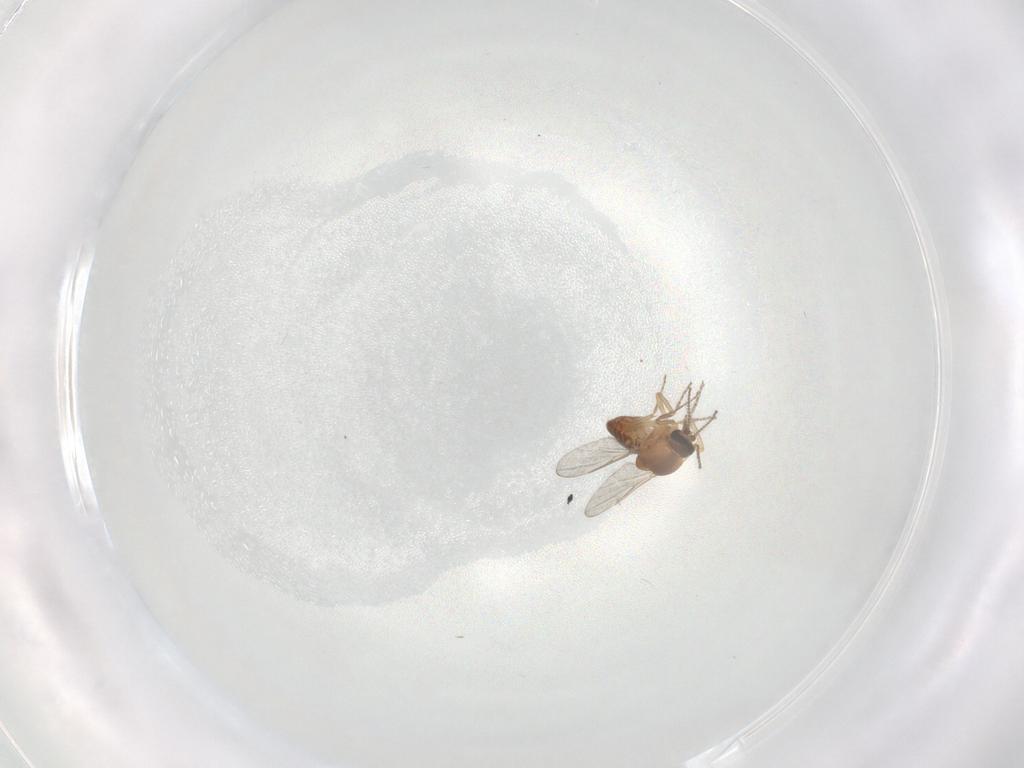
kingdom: Animalia
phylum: Arthropoda
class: Insecta
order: Diptera
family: Ceratopogonidae
